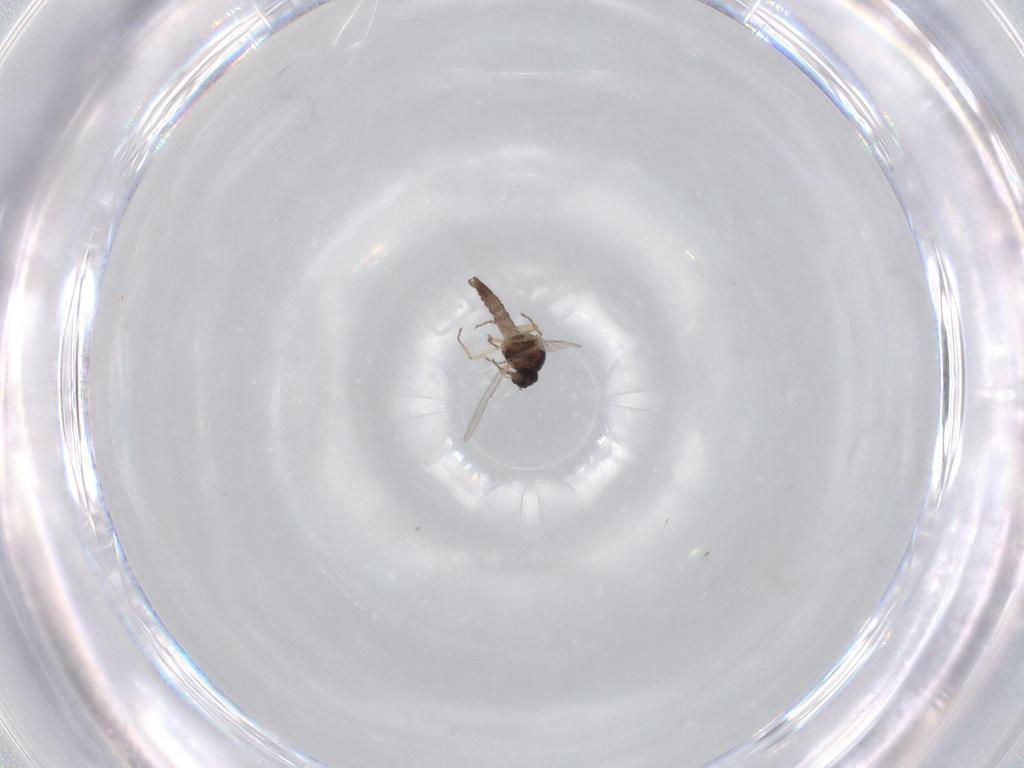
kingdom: Animalia
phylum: Arthropoda
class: Insecta
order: Diptera
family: Ceratopogonidae
